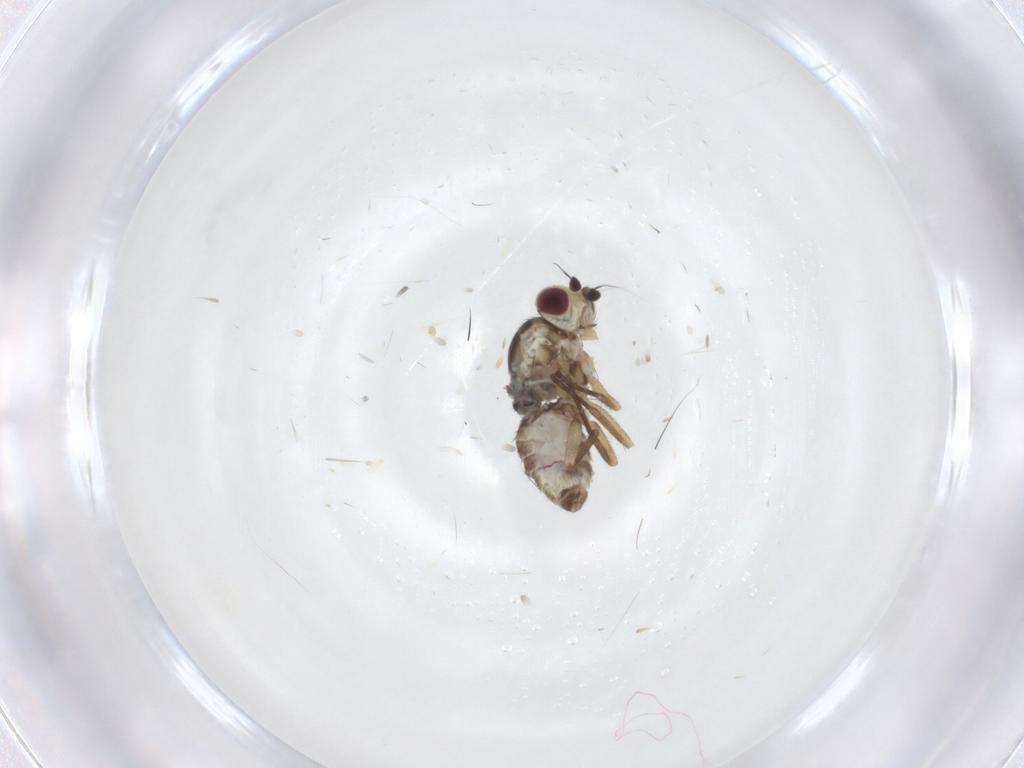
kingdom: Animalia
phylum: Arthropoda
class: Insecta
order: Diptera
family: Agromyzidae
